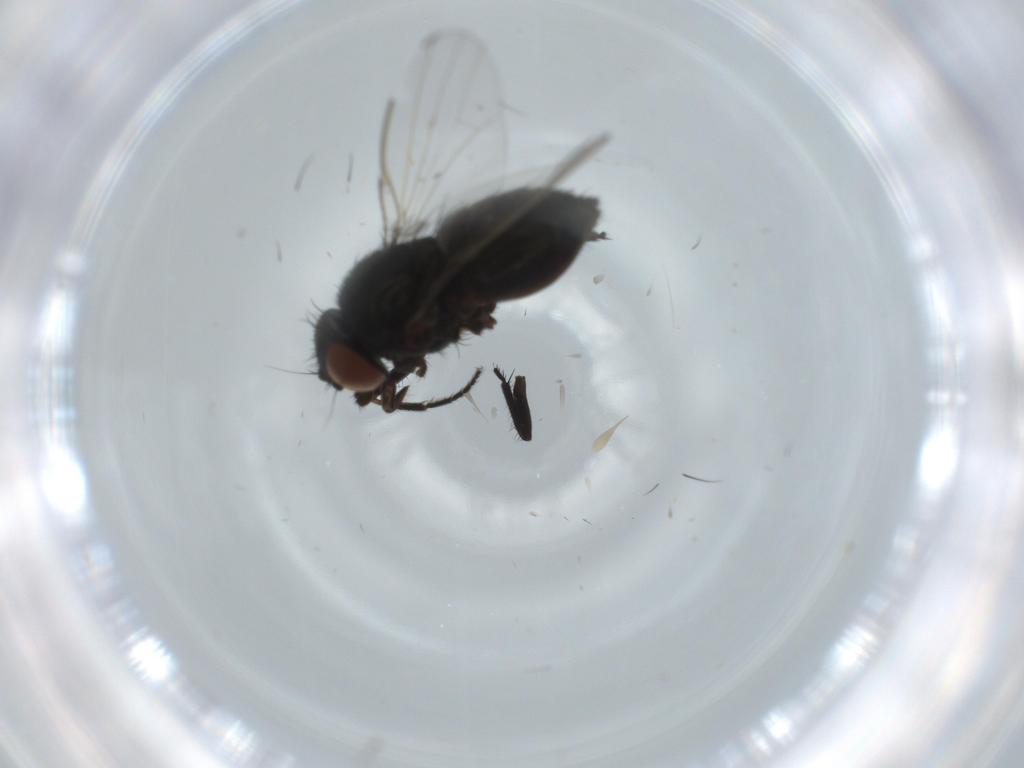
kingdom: Animalia
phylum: Arthropoda
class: Insecta
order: Diptera
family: Milichiidae
